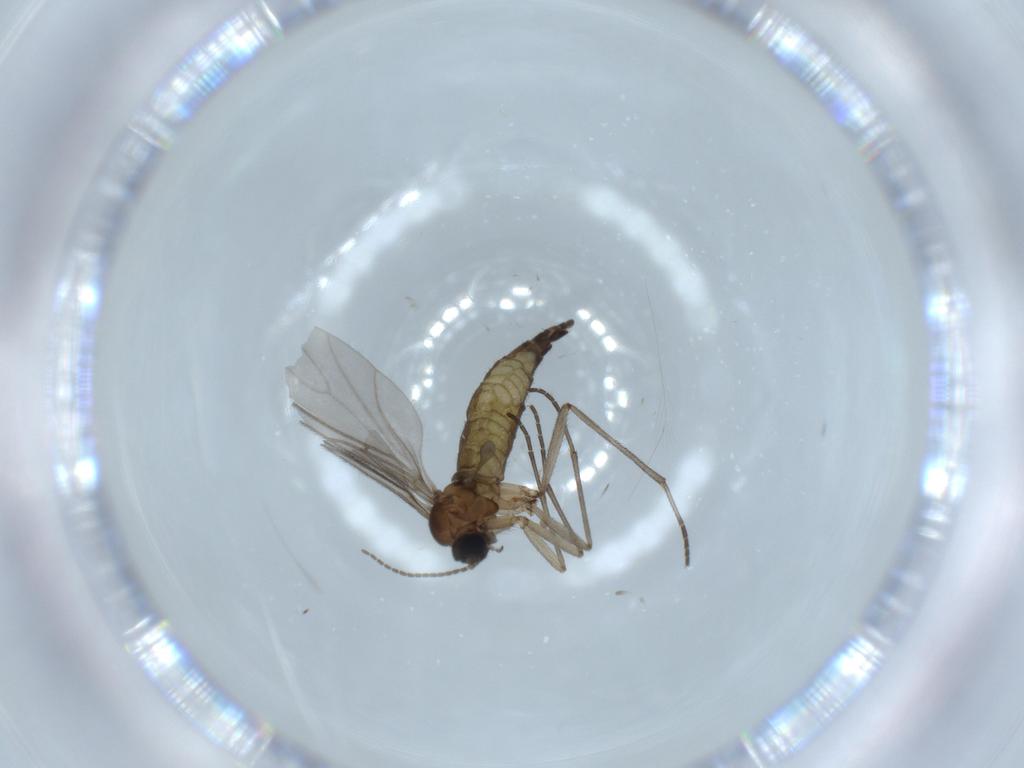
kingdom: Animalia
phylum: Arthropoda
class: Insecta
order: Diptera
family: Sciaridae
